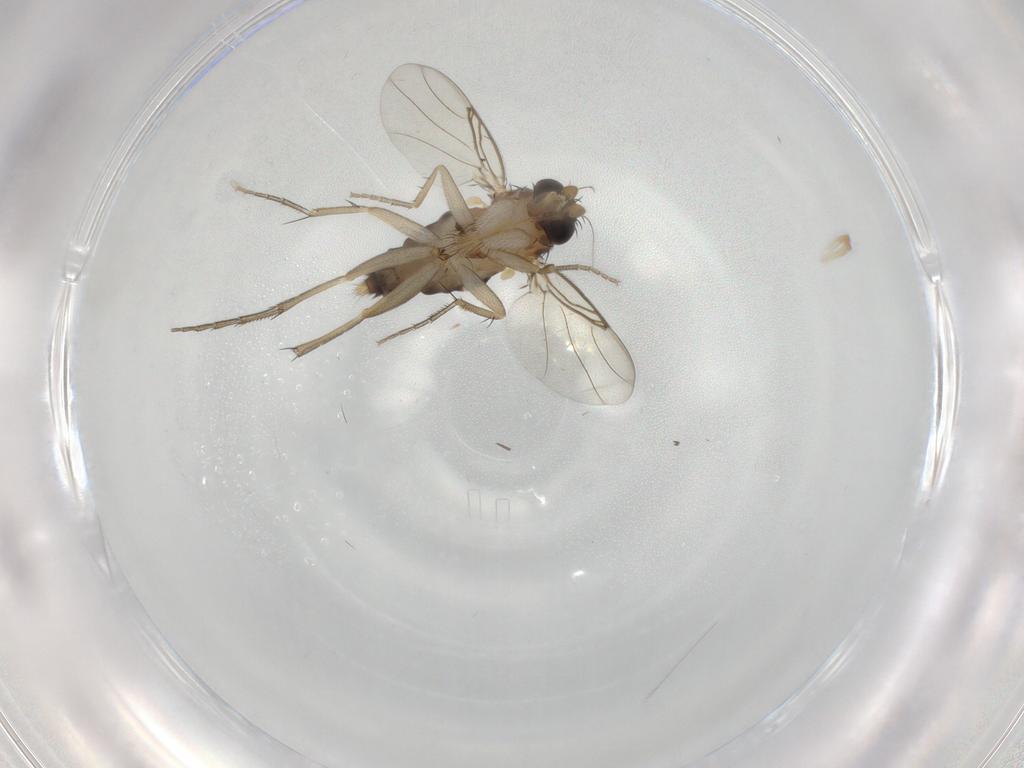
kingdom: Animalia
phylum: Arthropoda
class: Insecta
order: Diptera
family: Phoridae
